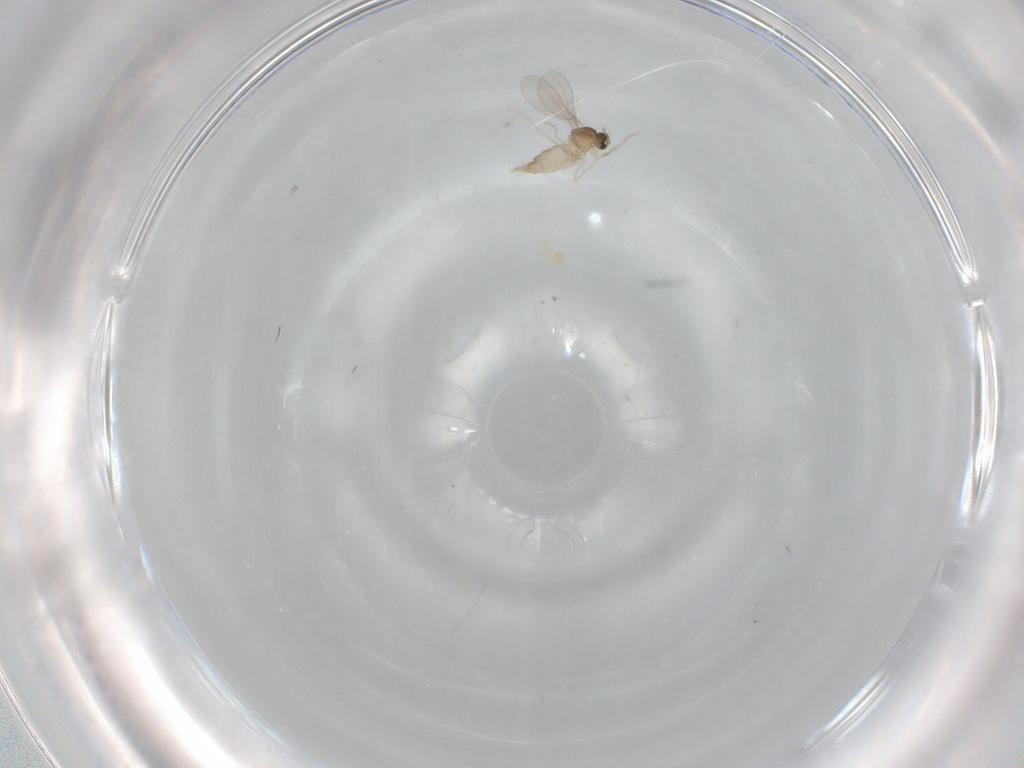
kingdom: Animalia
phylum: Arthropoda
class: Insecta
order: Diptera
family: Cecidomyiidae
